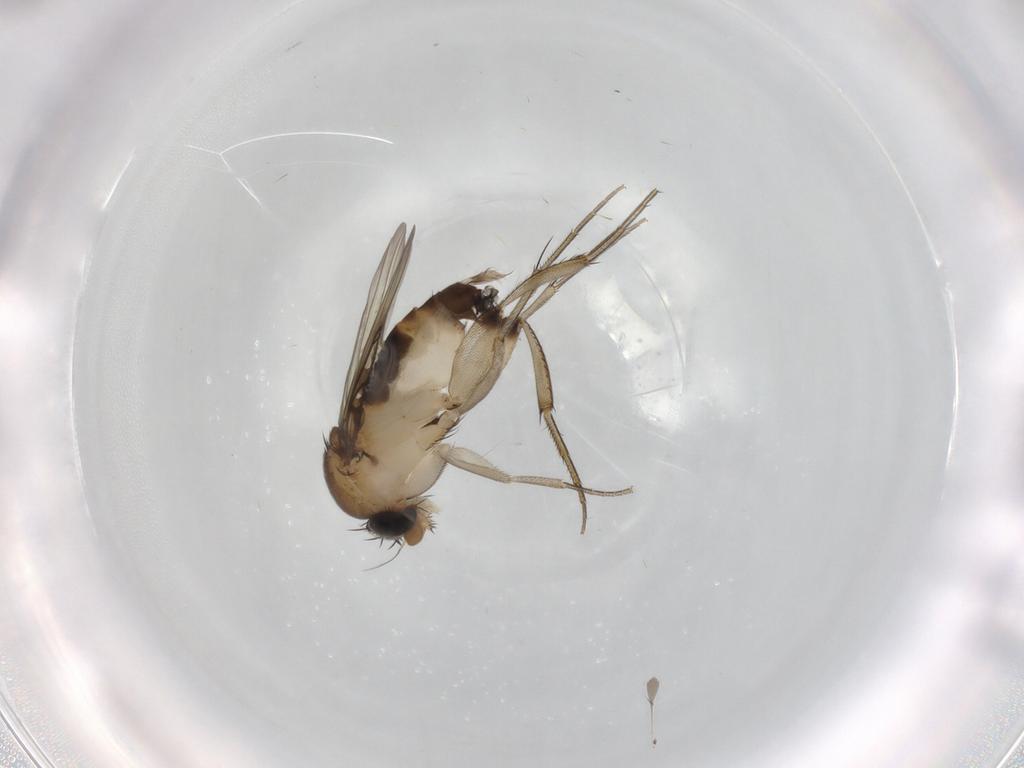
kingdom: Animalia
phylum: Arthropoda
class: Insecta
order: Diptera
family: Phoridae
